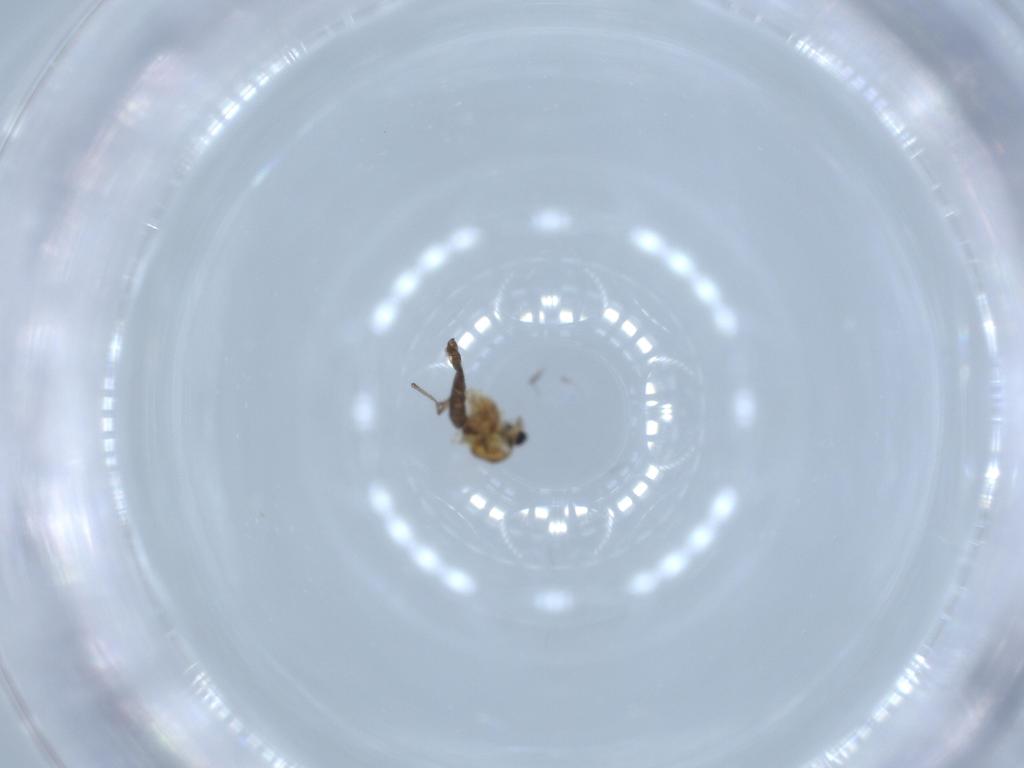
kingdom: Animalia
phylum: Arthropoda
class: Insecta
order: Diptera
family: Chironomidae
